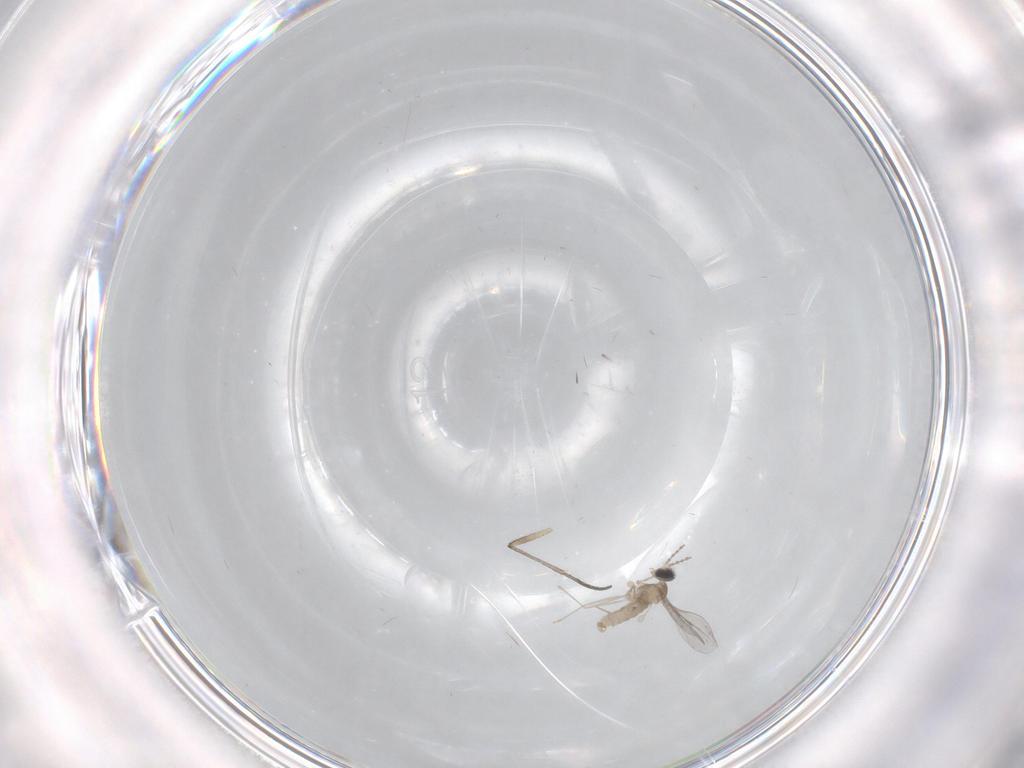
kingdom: Animalia
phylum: Arthropoda
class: Insecta
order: Diptera
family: Cecidomyiidae
